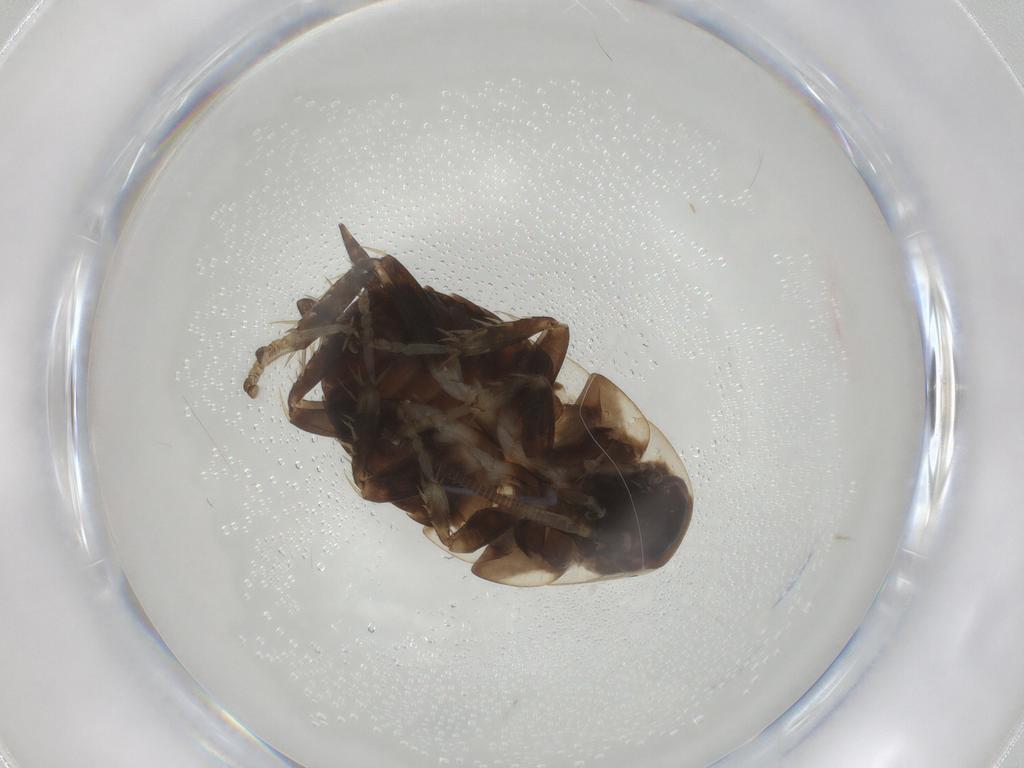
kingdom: Animalia
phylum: Arthropoda
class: Insecta
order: Blattodea
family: Ectobiidae
